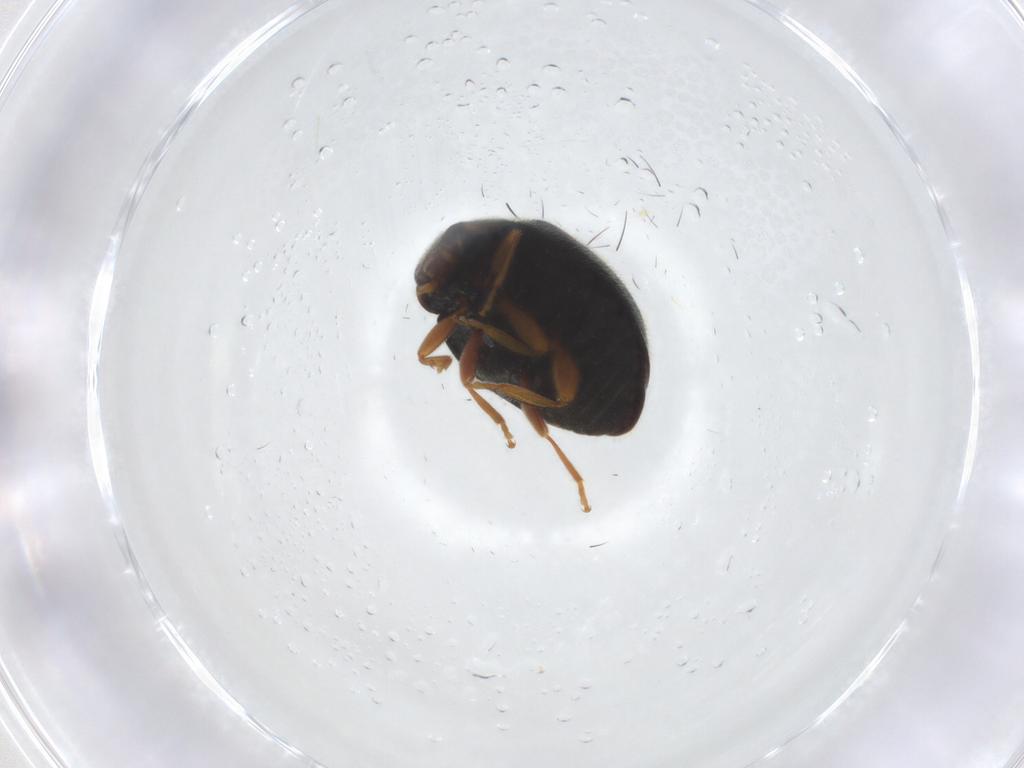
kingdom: Animalia
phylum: Arthropoda
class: Insecta
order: Coleoptera
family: Coccinellidae
